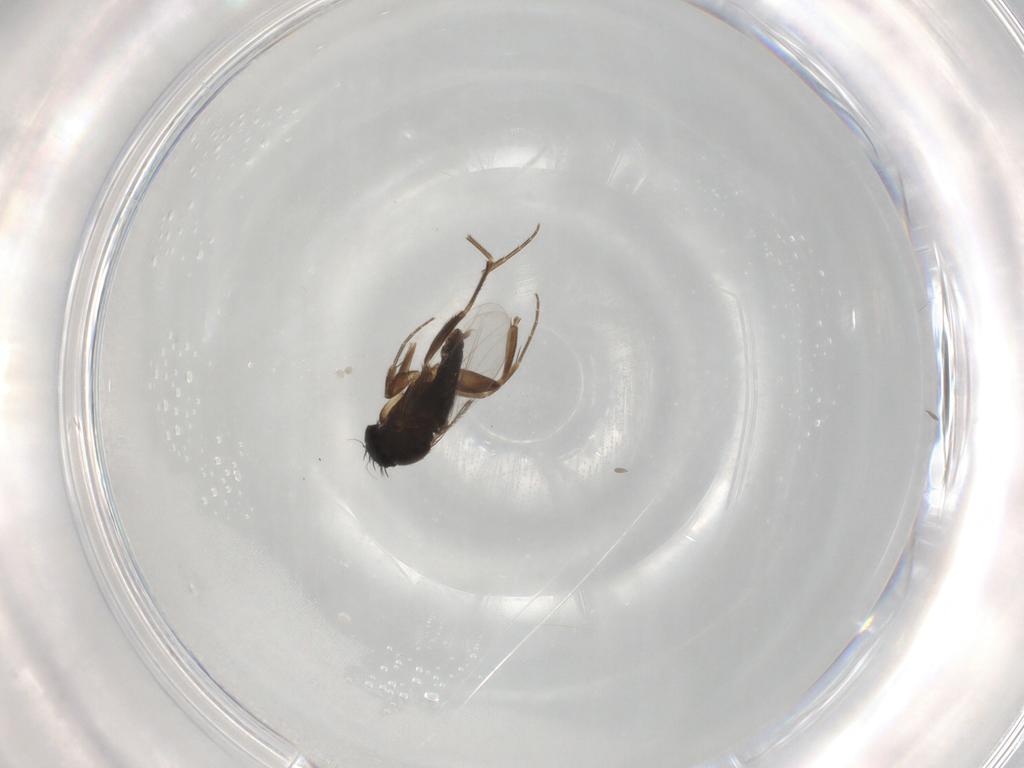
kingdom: Animalia
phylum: Arthropoda
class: Insecta
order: Diptera
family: Phoridae
